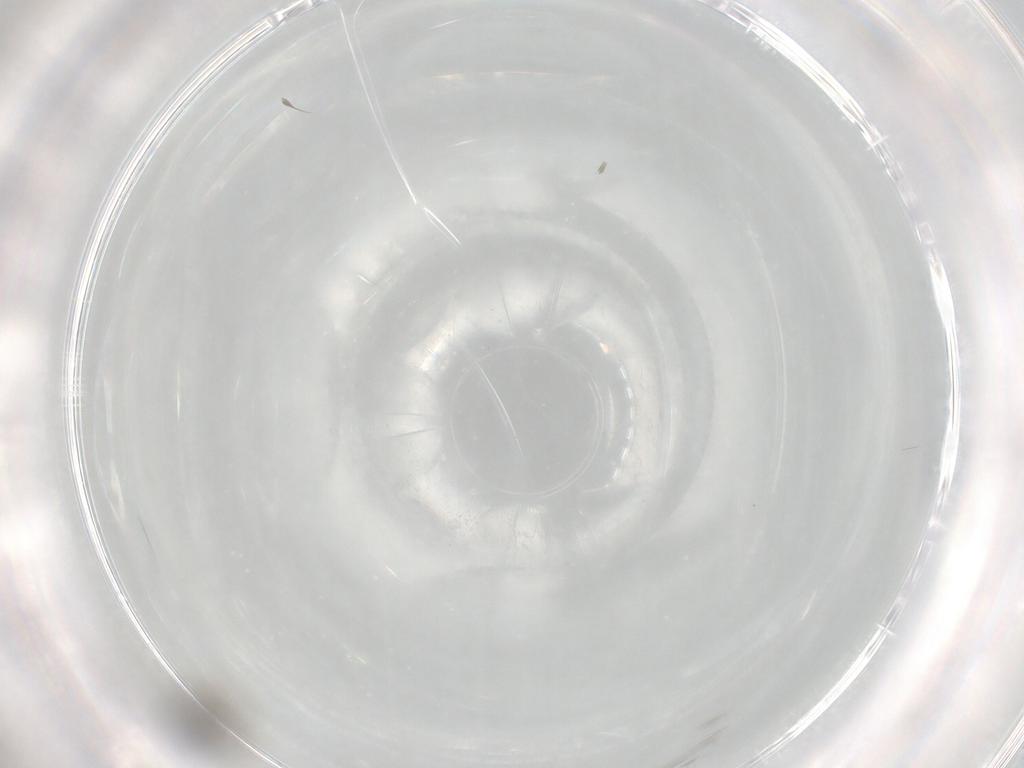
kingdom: Animalia
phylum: Arthropoda
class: Insecta
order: Hymenoptera
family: Platygastridae
